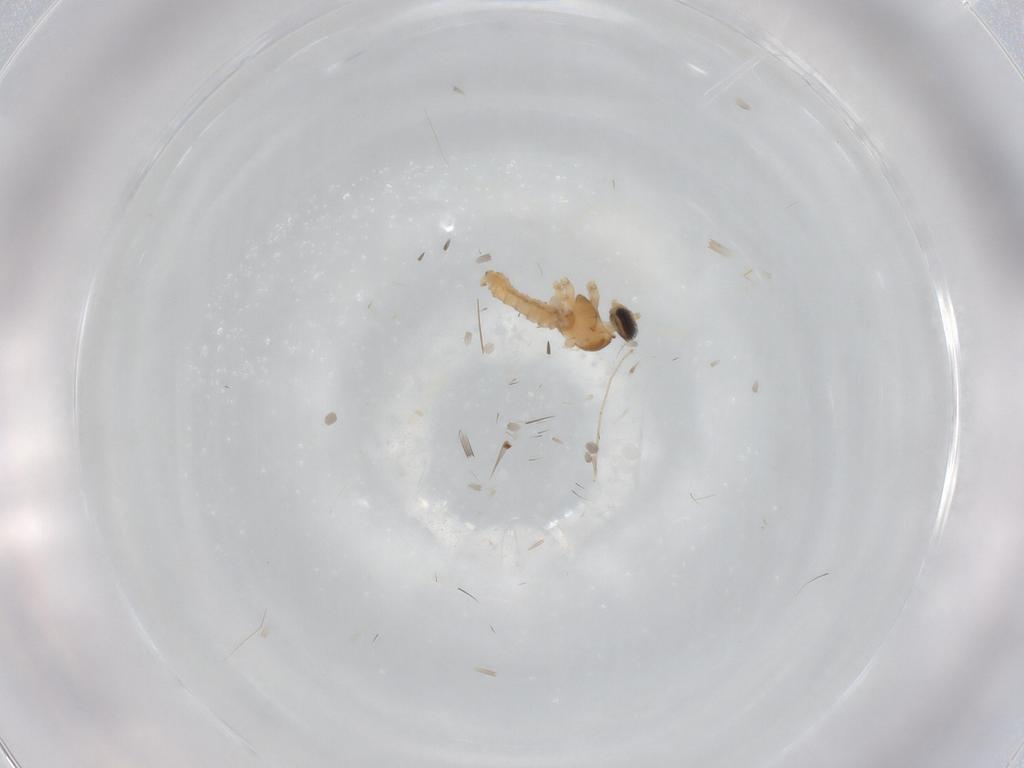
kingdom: Animalia
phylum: Arthropoda
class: Insecta
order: Diptera
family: Cecidomyiidae
